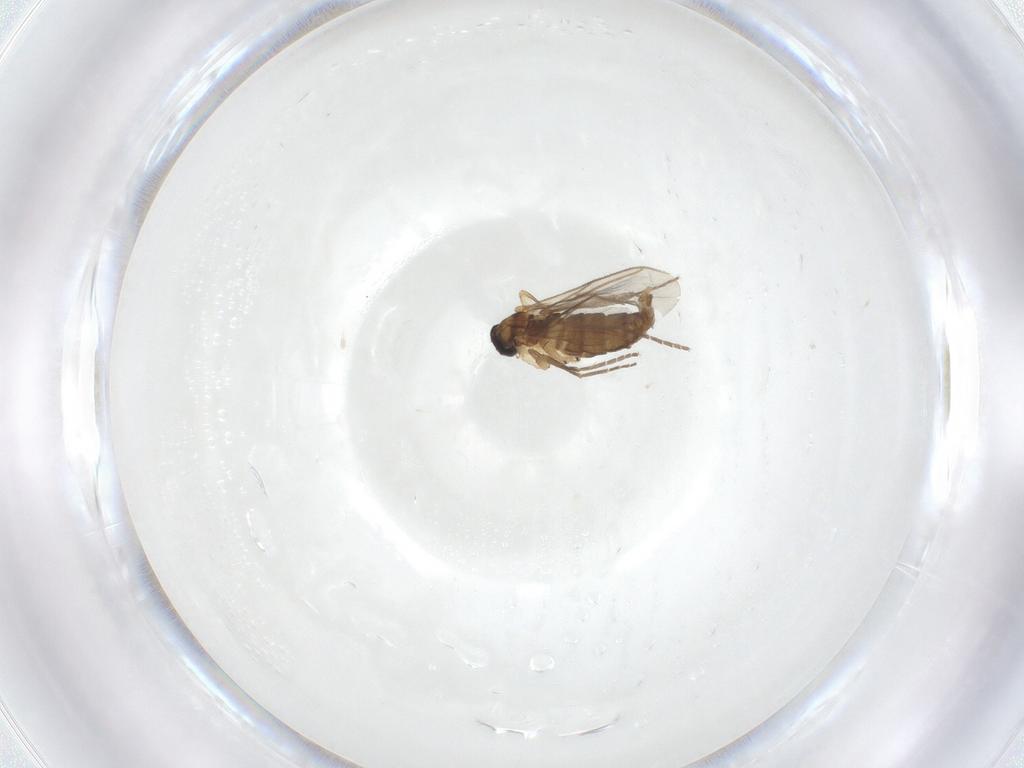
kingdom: Animalia
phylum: Arthropoda
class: Insecta
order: Diptera
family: Sciaridae
